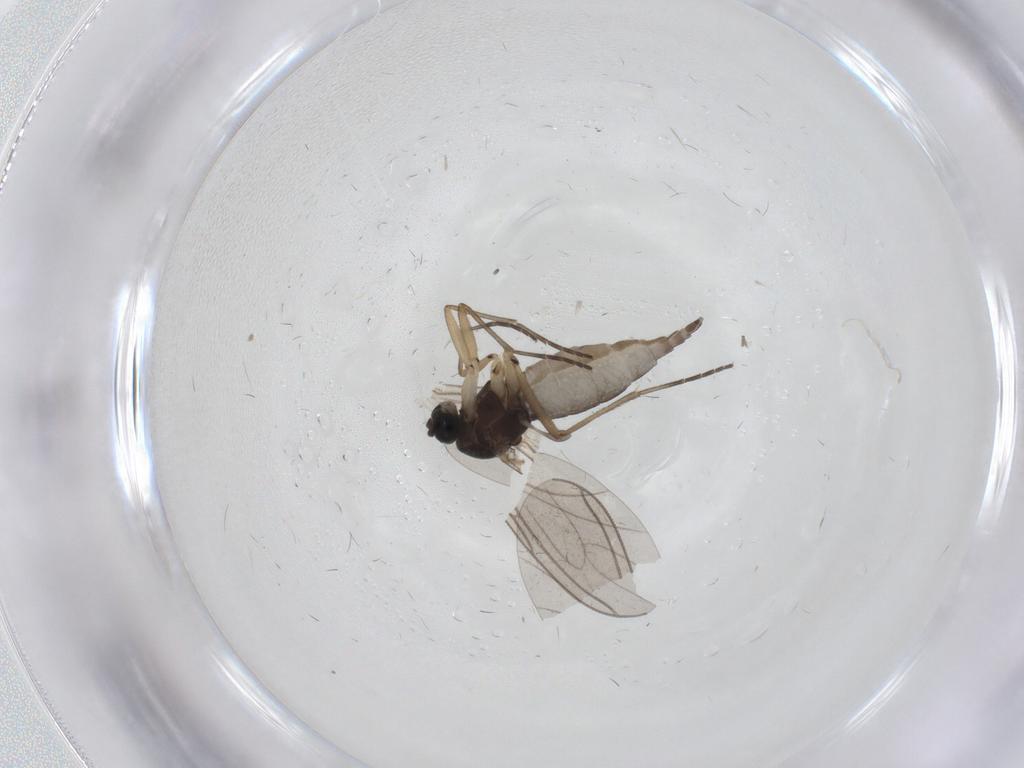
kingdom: Animalia
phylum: Arthropoda
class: Insecta
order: Diptera
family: Sciaridae
